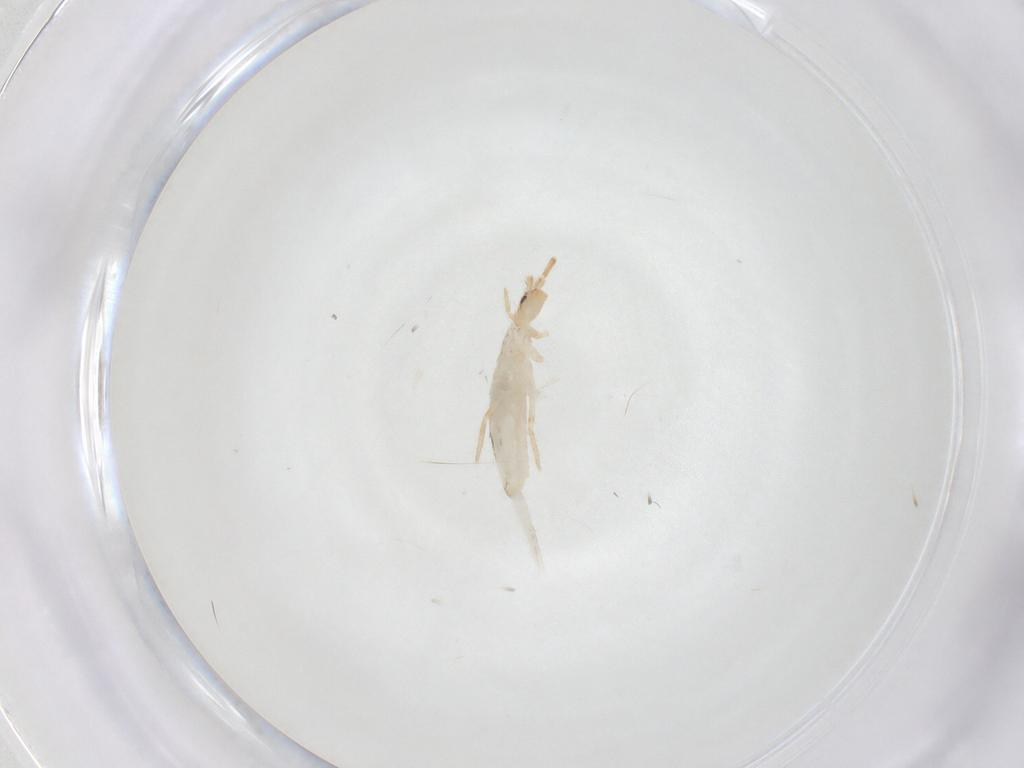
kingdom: Animalia
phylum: Arthropoda
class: Collembola
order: Entomobryomorpha
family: Entomobryidae
